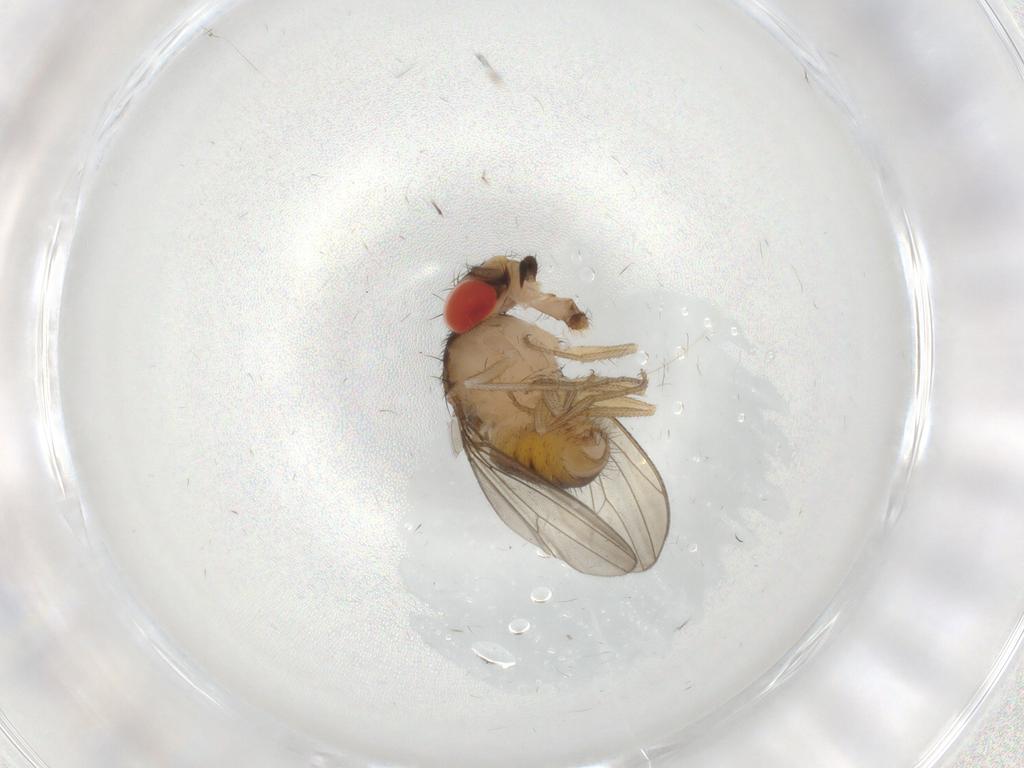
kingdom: Animalia
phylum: Arthropoda
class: Insecta
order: Diptera
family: Drosophilidae
